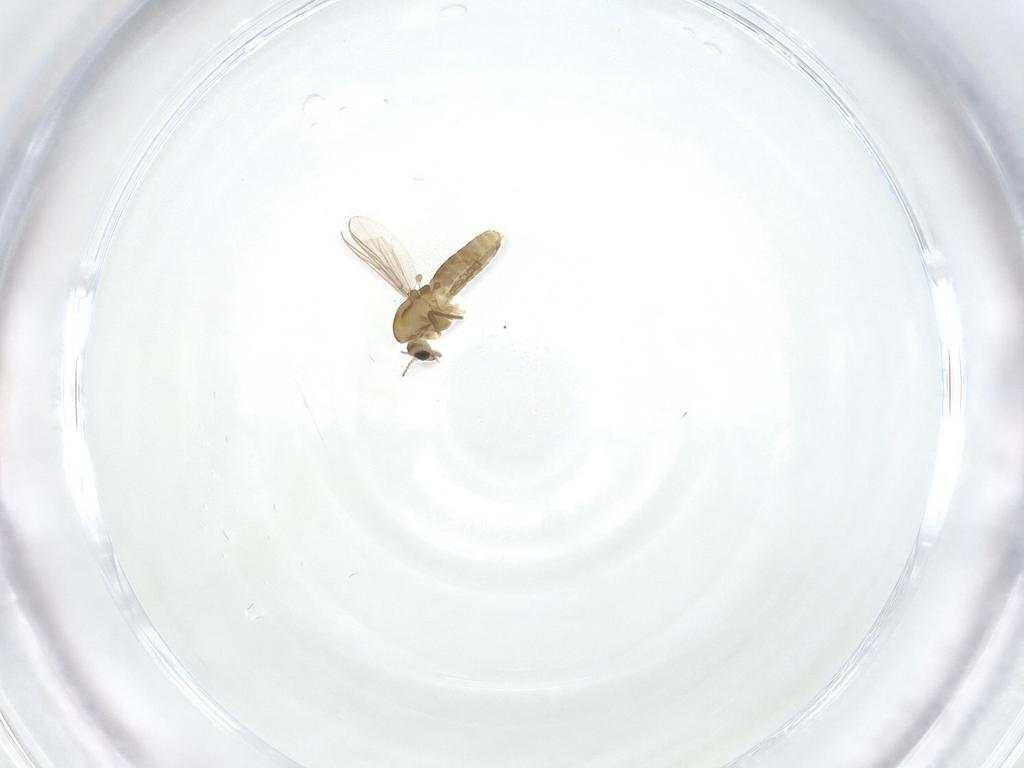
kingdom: Animalia
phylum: Arthropoda
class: Insecta
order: Diptera
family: Chironomidae
